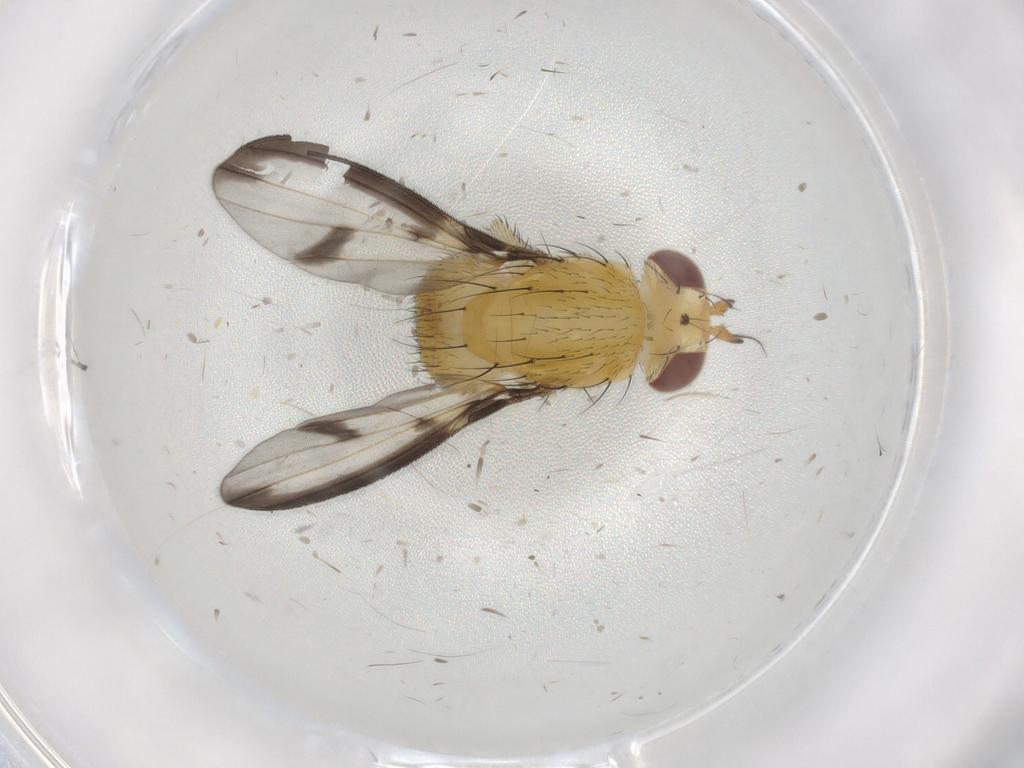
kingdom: Animalia
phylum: Arthropoda
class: Insecta
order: Diptera
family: Lauxaniidae
